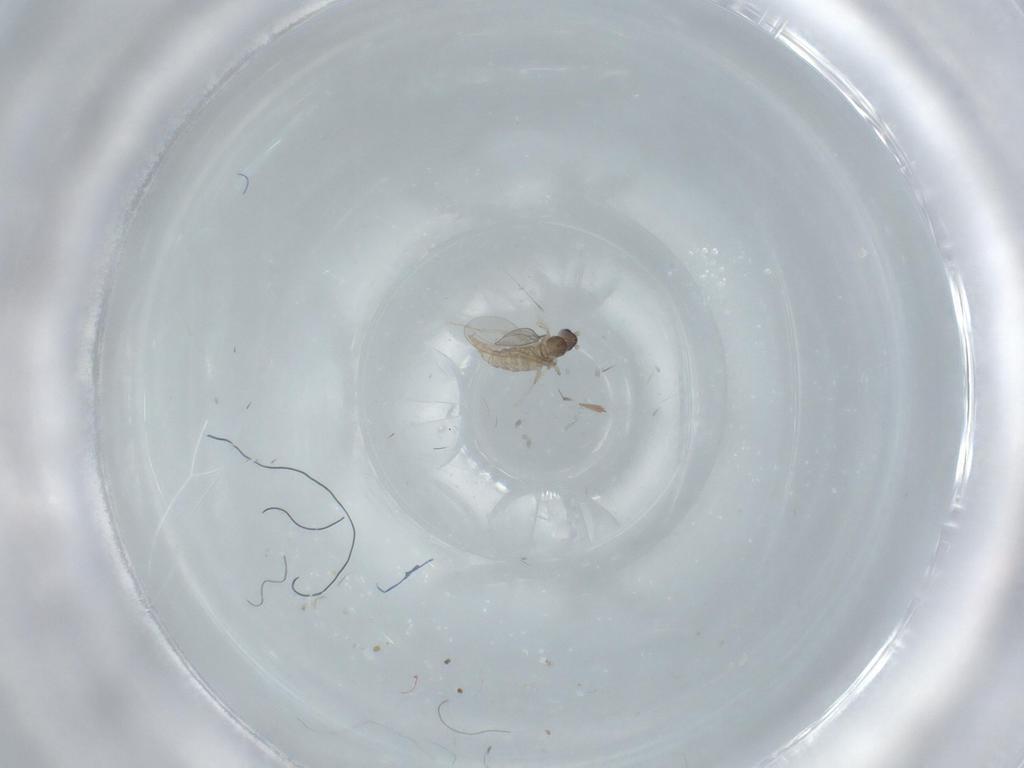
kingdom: Animalia
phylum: Arthropoda
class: Insecta
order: Diptera
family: Cecidomyiidae
